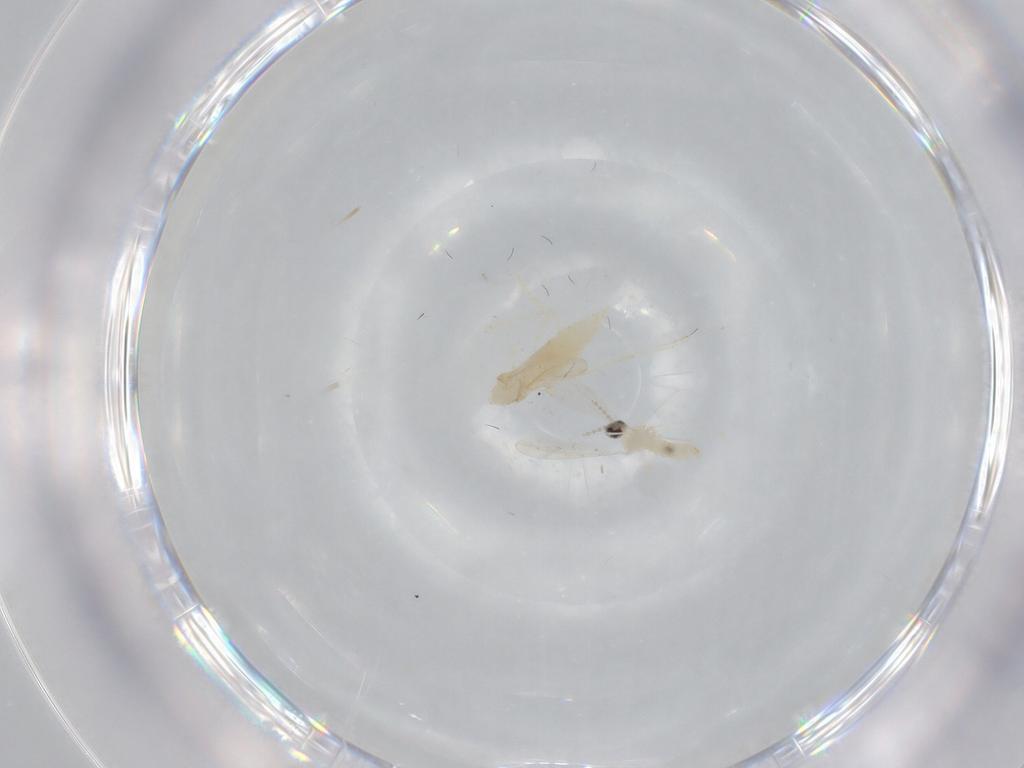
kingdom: Animalia
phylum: Arthropoda
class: Insecta
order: Diptera
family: Cecidomyiidae
